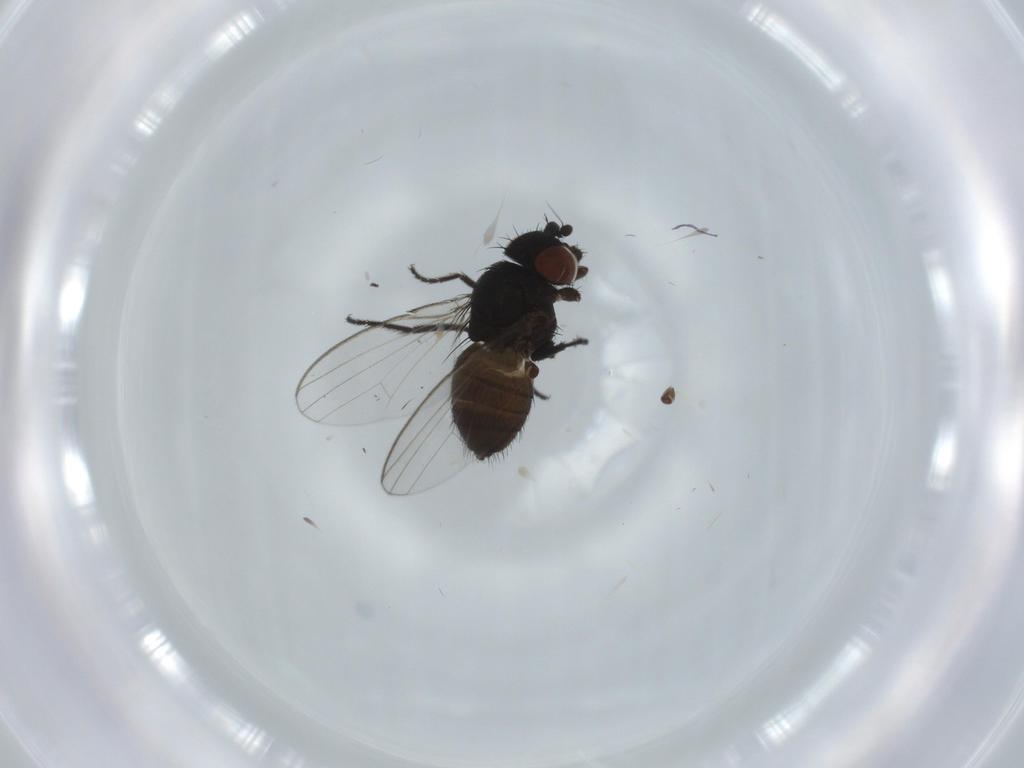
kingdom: Animalia
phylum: Arthropoda
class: Insecta
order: Diptera
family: Milichiidae
